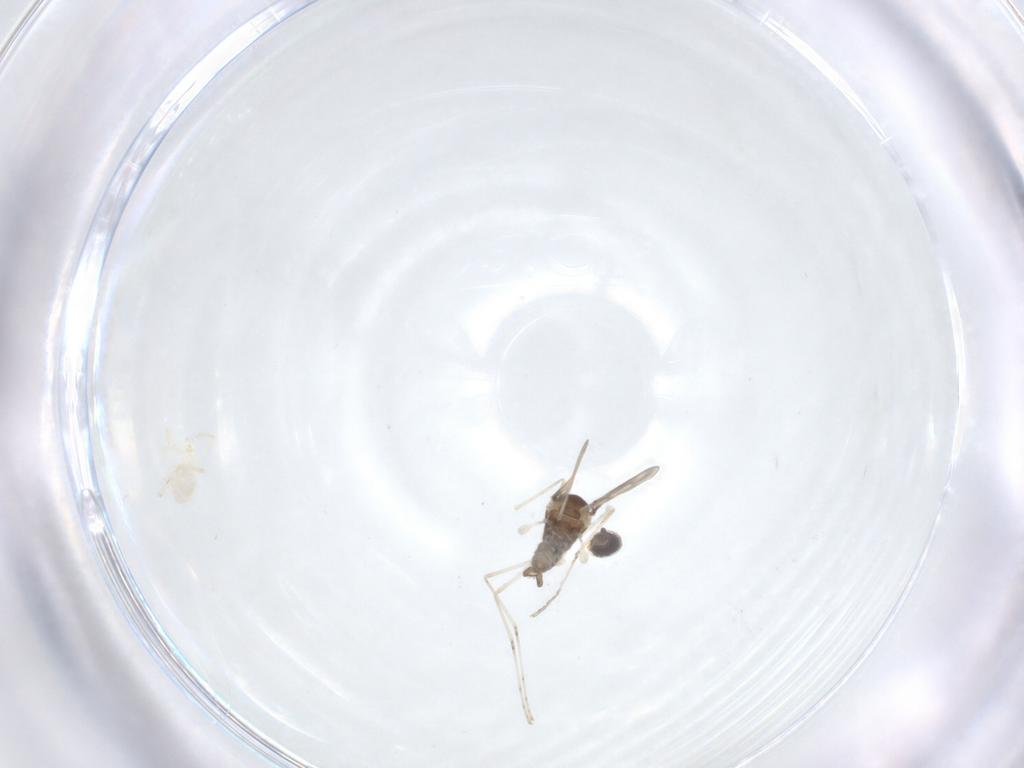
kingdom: Animalia
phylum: Arthropoda
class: Insecta
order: Diptera
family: Cecidomyiidae
